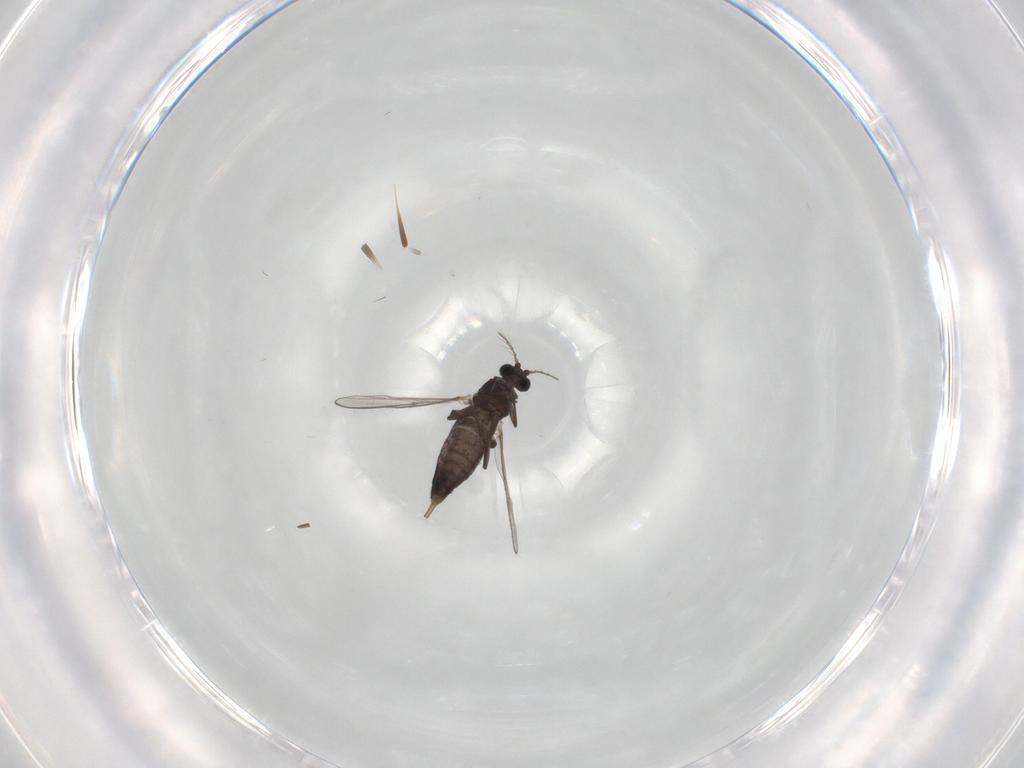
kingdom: Animalia
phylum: Arthropoda
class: Insecta
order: Diptera
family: Chironomidae
